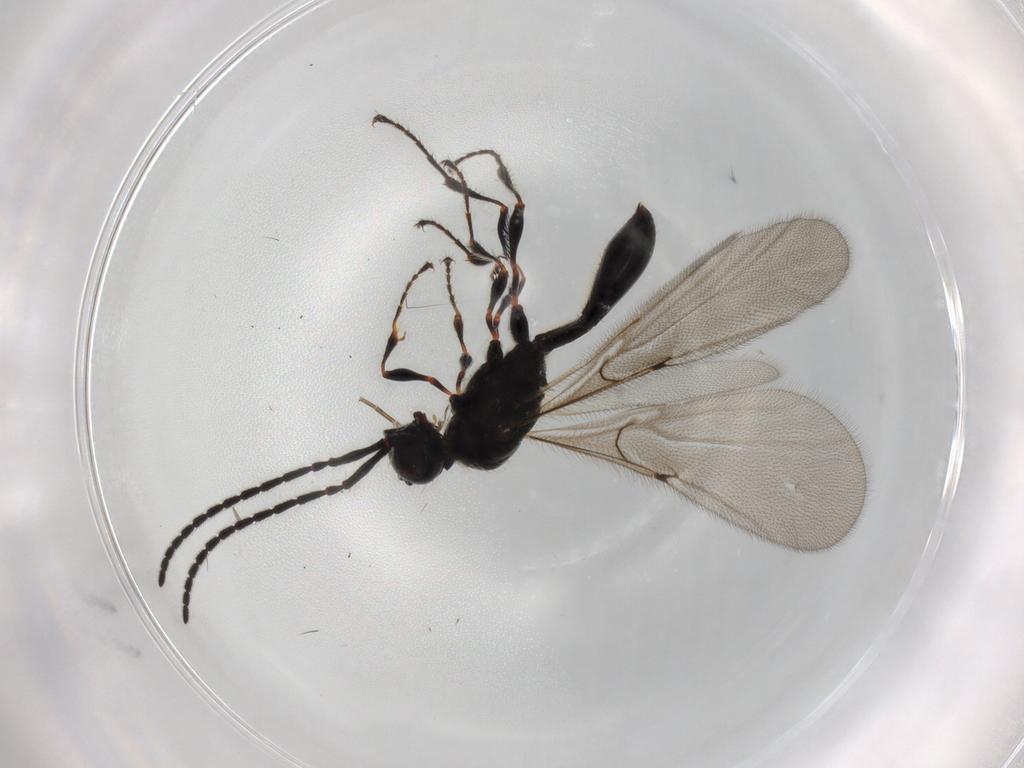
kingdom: Animalia
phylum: Arthropoda
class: Insecta
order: Hymenoptera
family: Diapriidae
